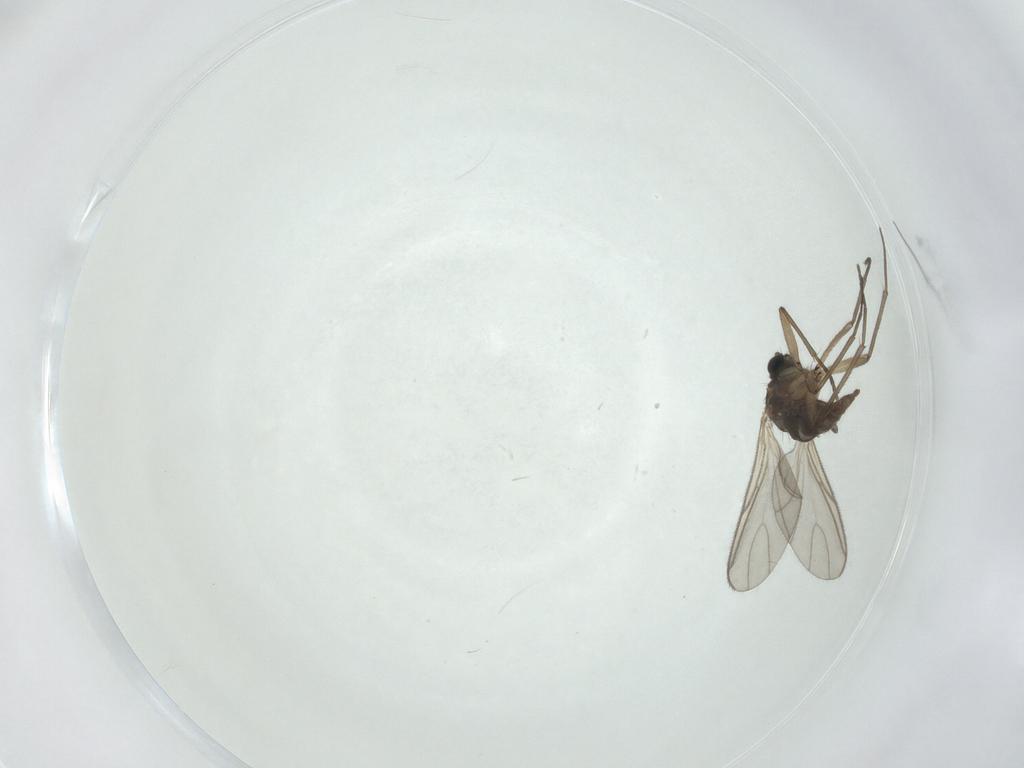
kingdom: Animalia
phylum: Arthropoda
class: Insecta
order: Diptera
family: Sciaridae
